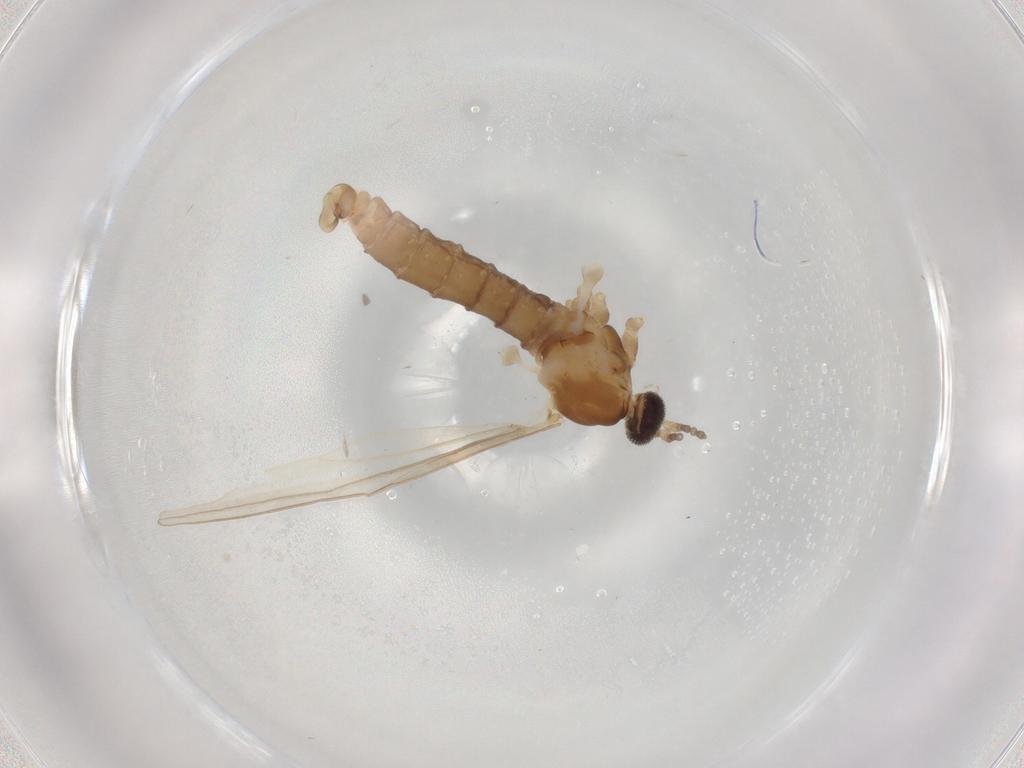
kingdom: Animalia
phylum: Arthropoda
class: Insecta
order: Diptera
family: Cecidomyiidae
